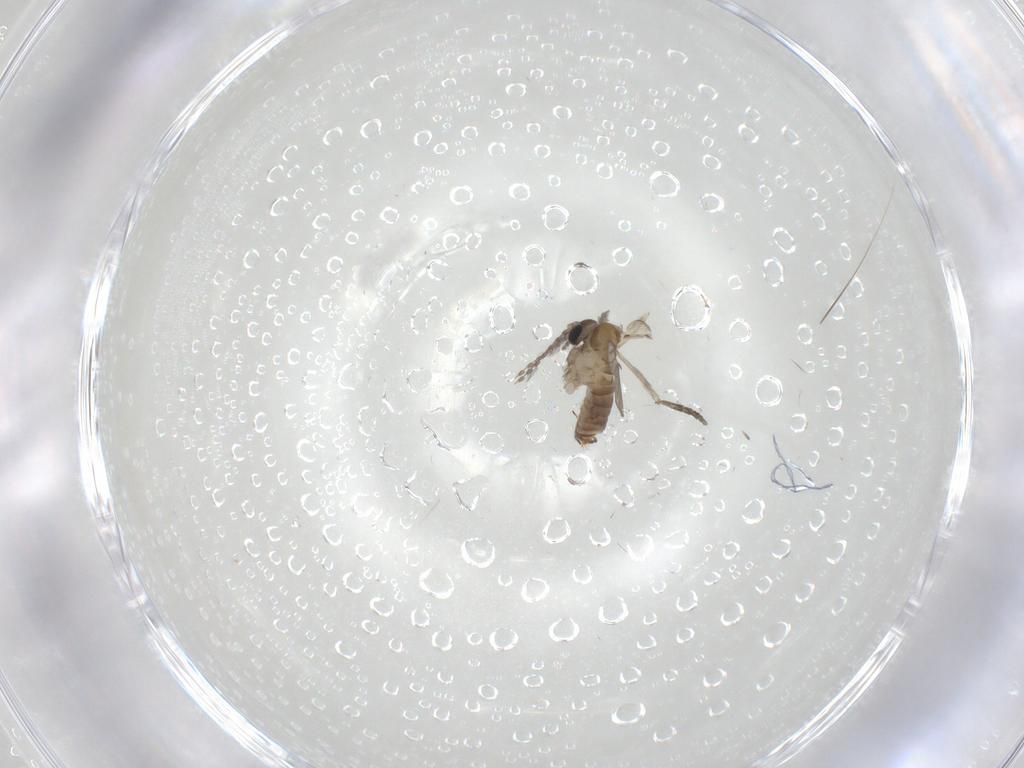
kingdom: Animalia
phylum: Arthropoda
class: Insecta
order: Diptera
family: Psychodidae
